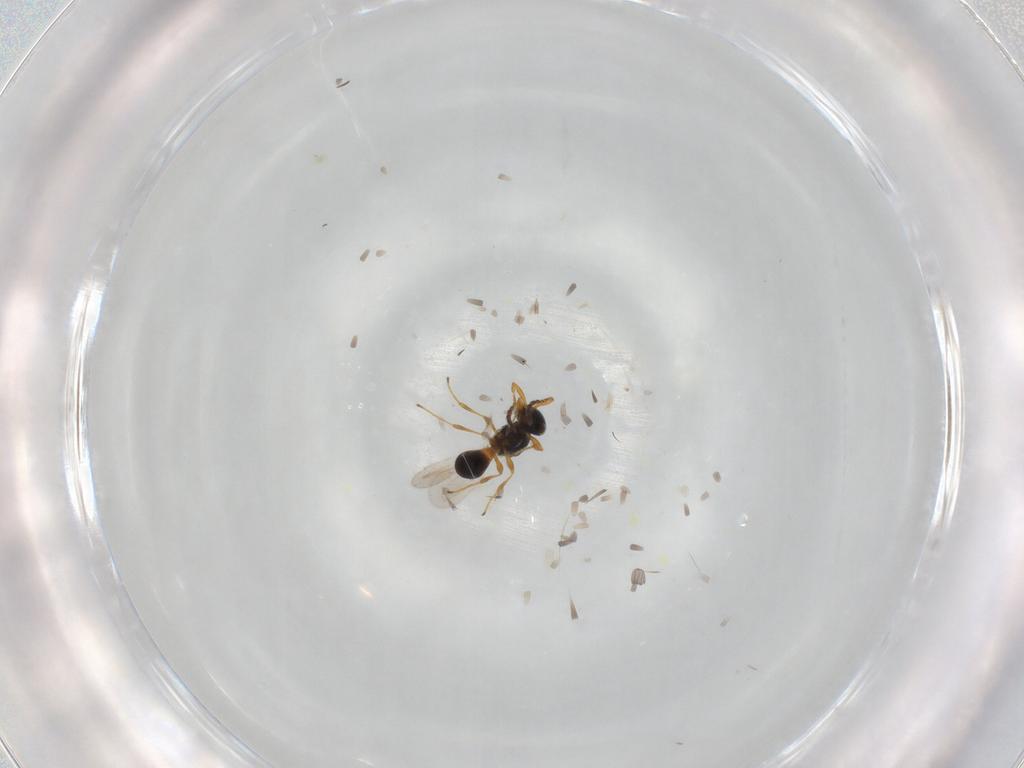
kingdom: Animalia
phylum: Arthropoda
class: Insecta
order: Hymenoptera
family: Platygastridae
